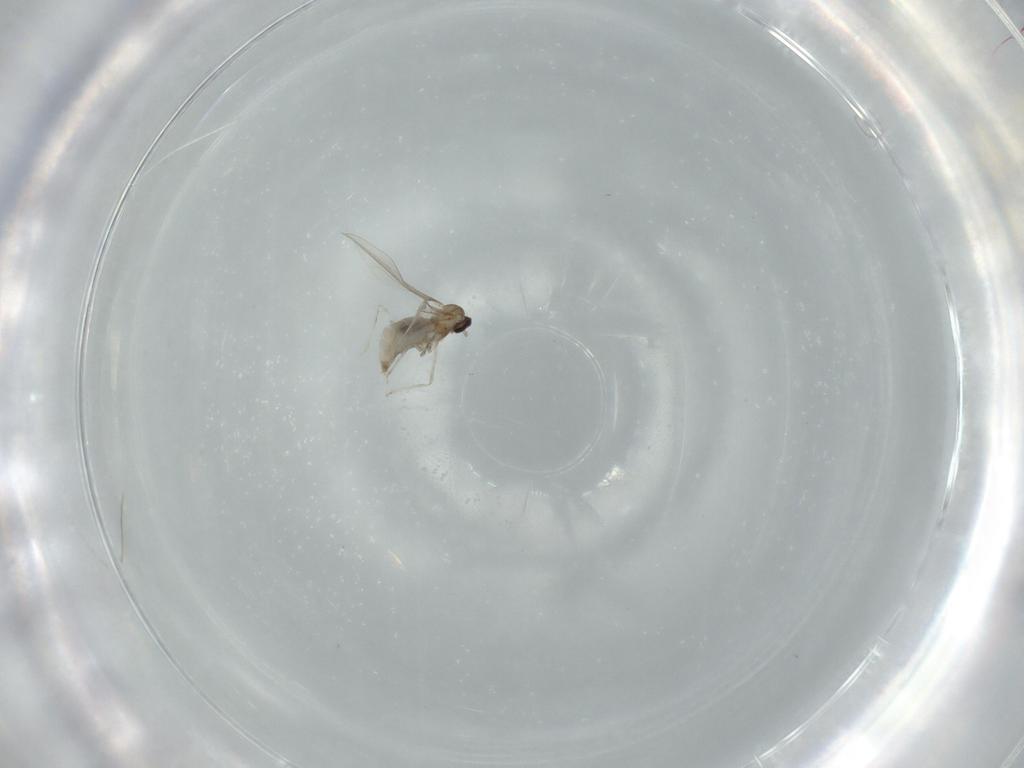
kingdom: Animalia
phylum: Arthropoda
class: Insecta
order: Diptera
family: Cecidomyiidae
